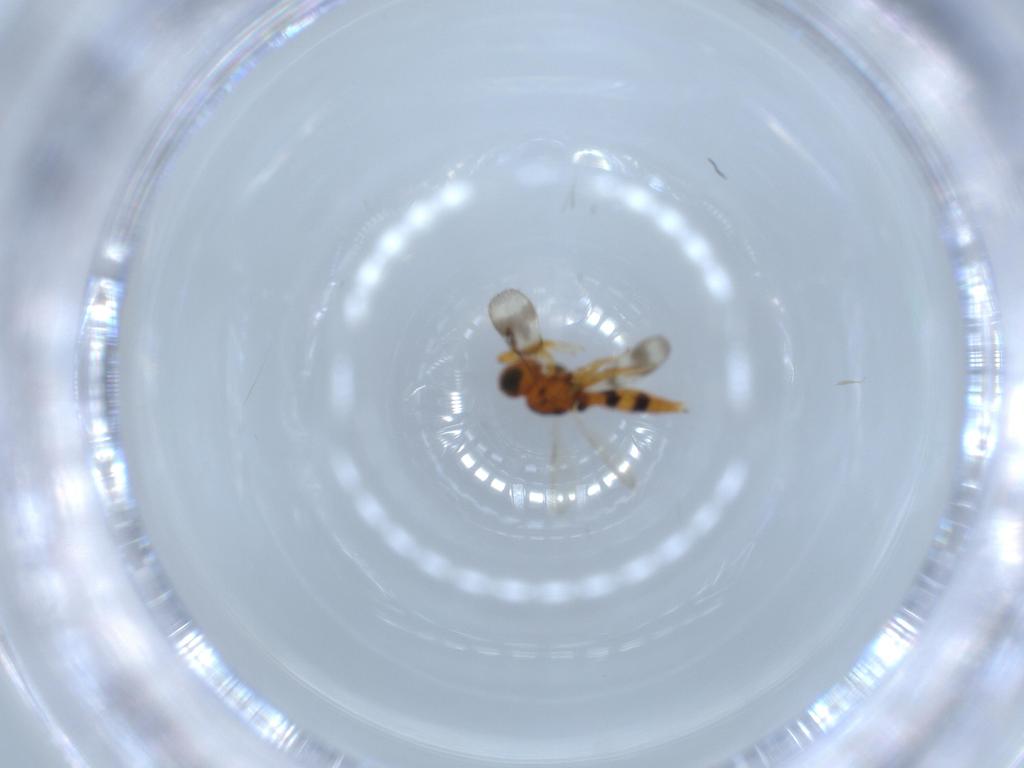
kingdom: Animalia
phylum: Arthropoda
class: Insecta
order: Hymenoptera
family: Scelionidae
